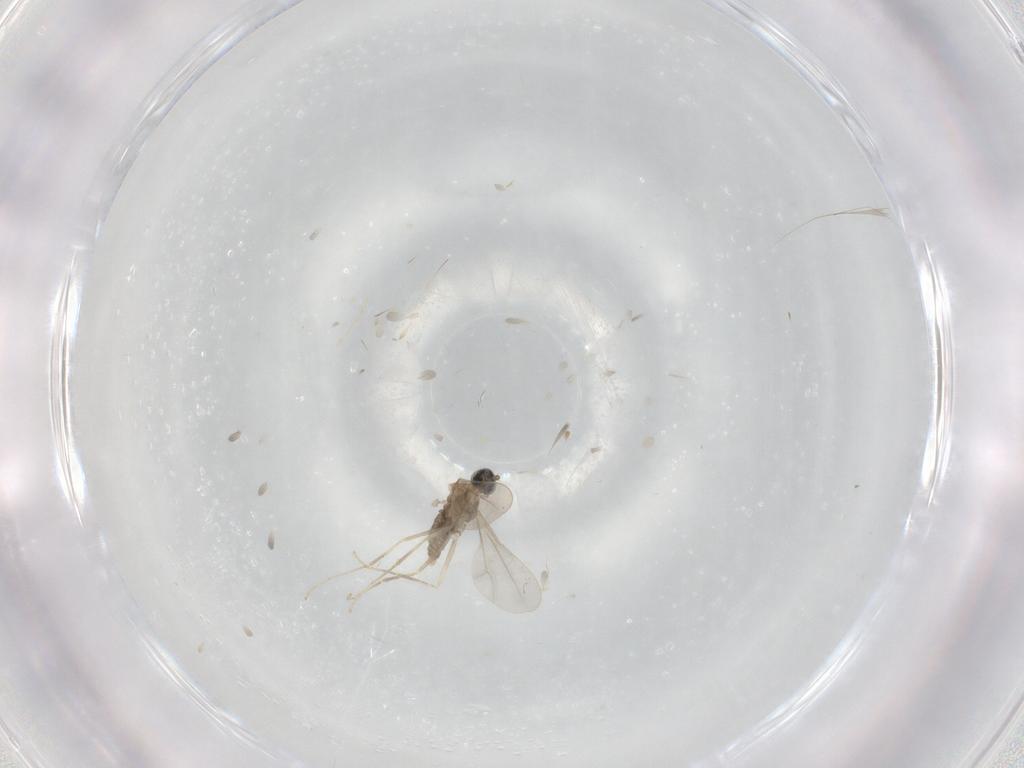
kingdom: Animalia
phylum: Arthropoda
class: Insecta
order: Diptera
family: Cecidomyiidae
